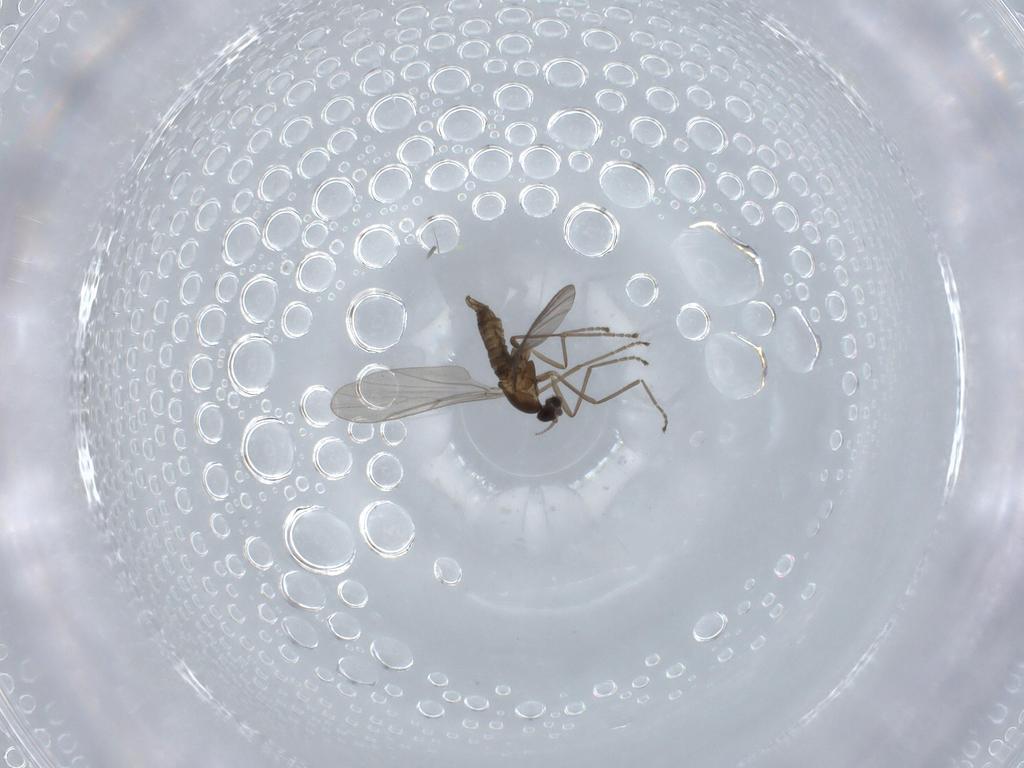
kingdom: Animalia
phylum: Arthropoda
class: Insecta
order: Diptera
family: Cecidomyiidae
